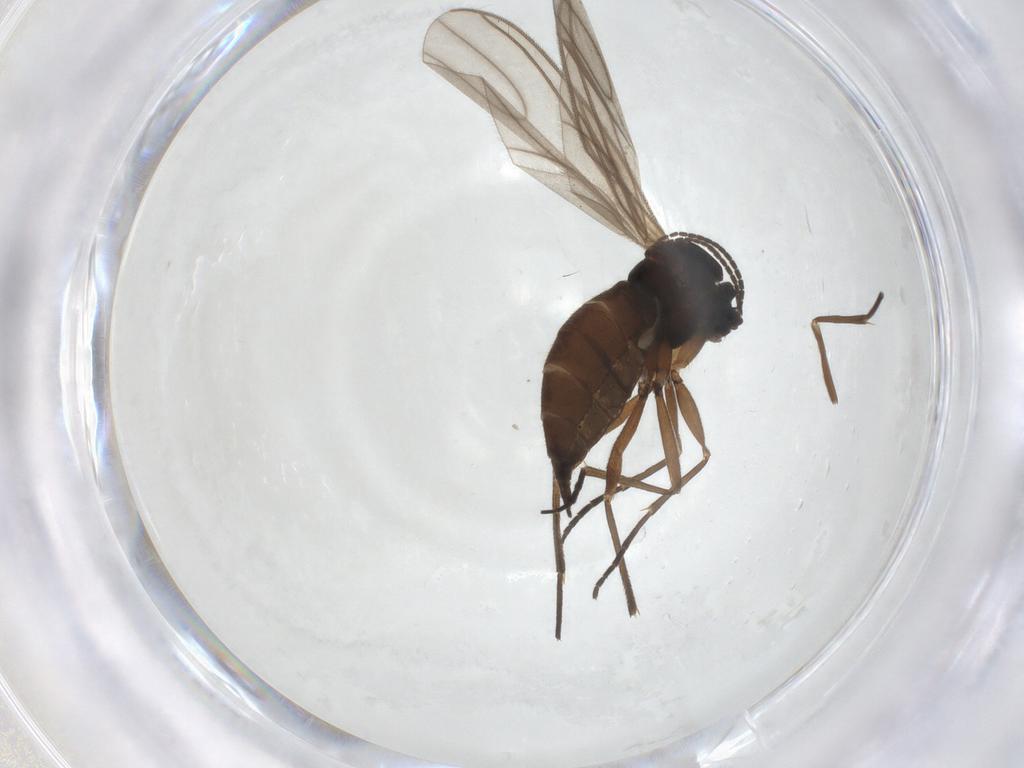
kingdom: Animalia
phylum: Arthropoda
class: Insecta
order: Diptera
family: Sciaridae
